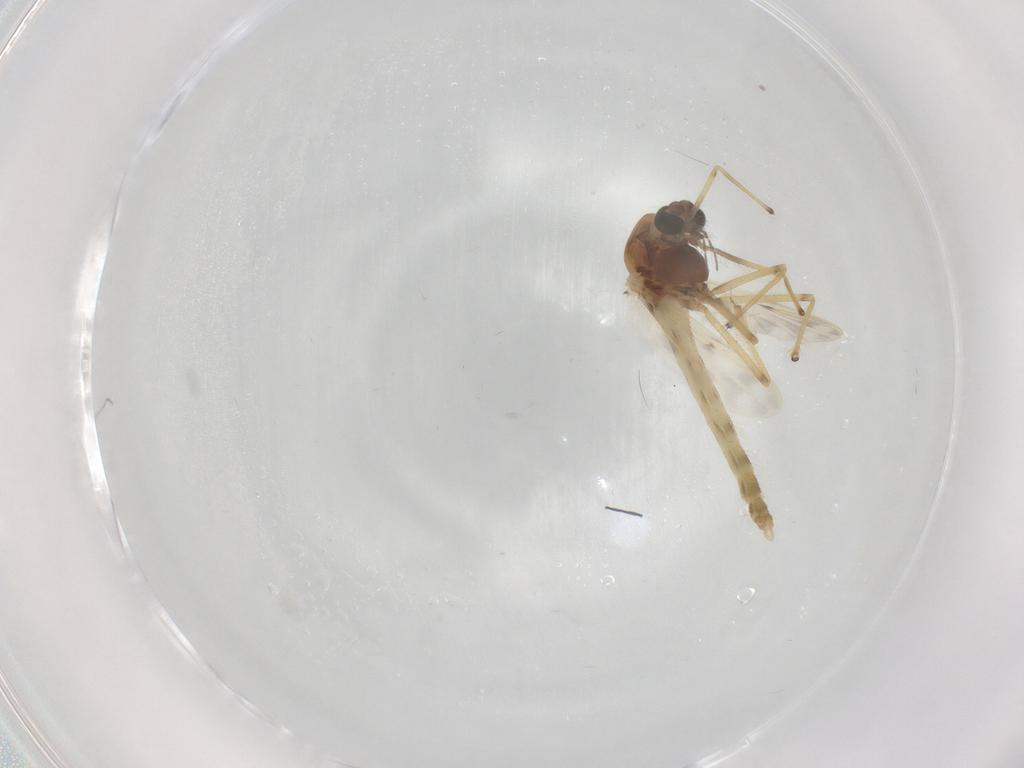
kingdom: Animalia
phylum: Arthropoda
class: Insecta
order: Diptera
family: Chironomidae
